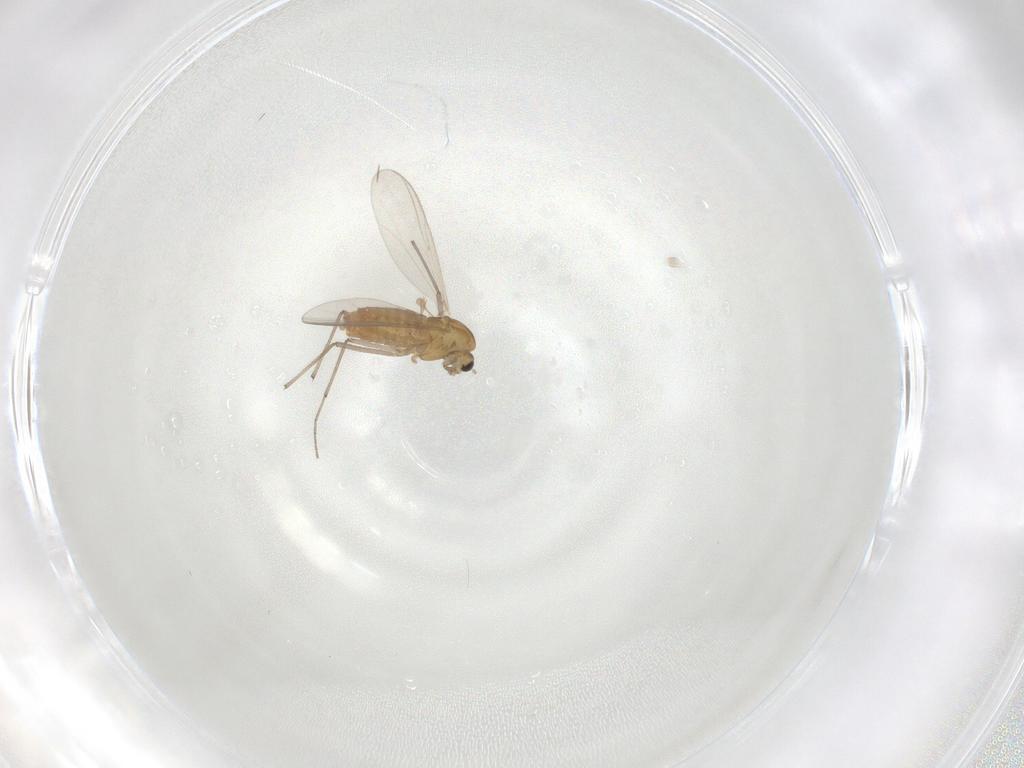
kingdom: Animalia
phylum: Arthropoda
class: Insecta
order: Diptera
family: Chironomidae
